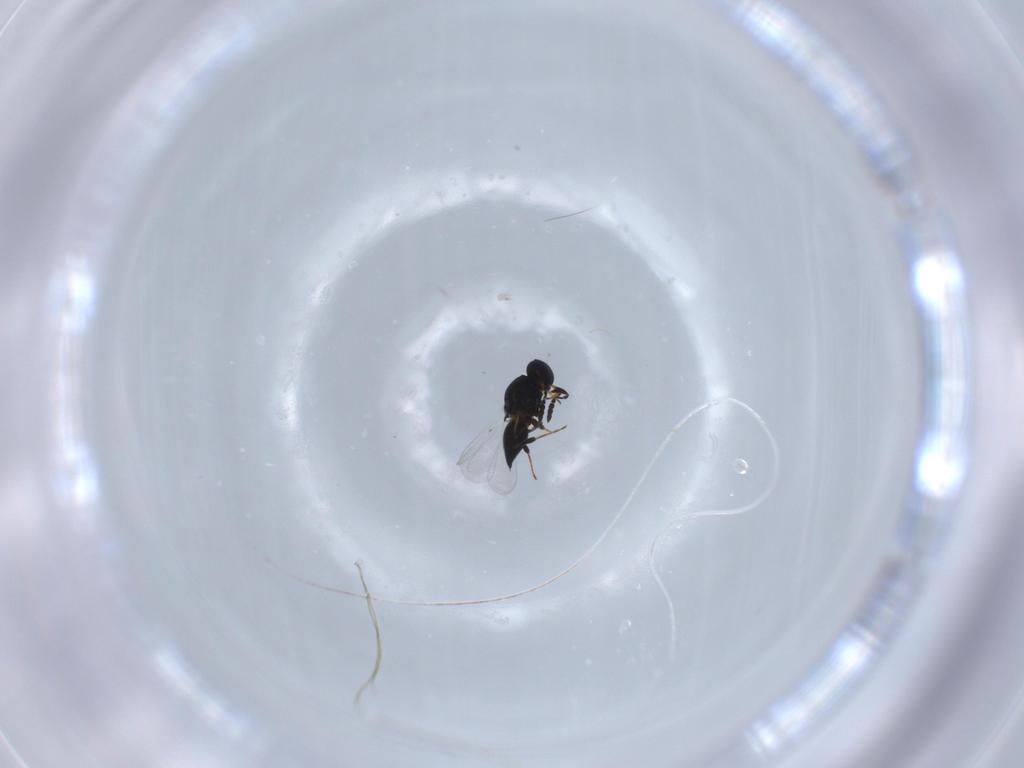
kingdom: Animalia
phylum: Arthropoda
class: Insecta
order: Hymenoptera
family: Platygastridae
